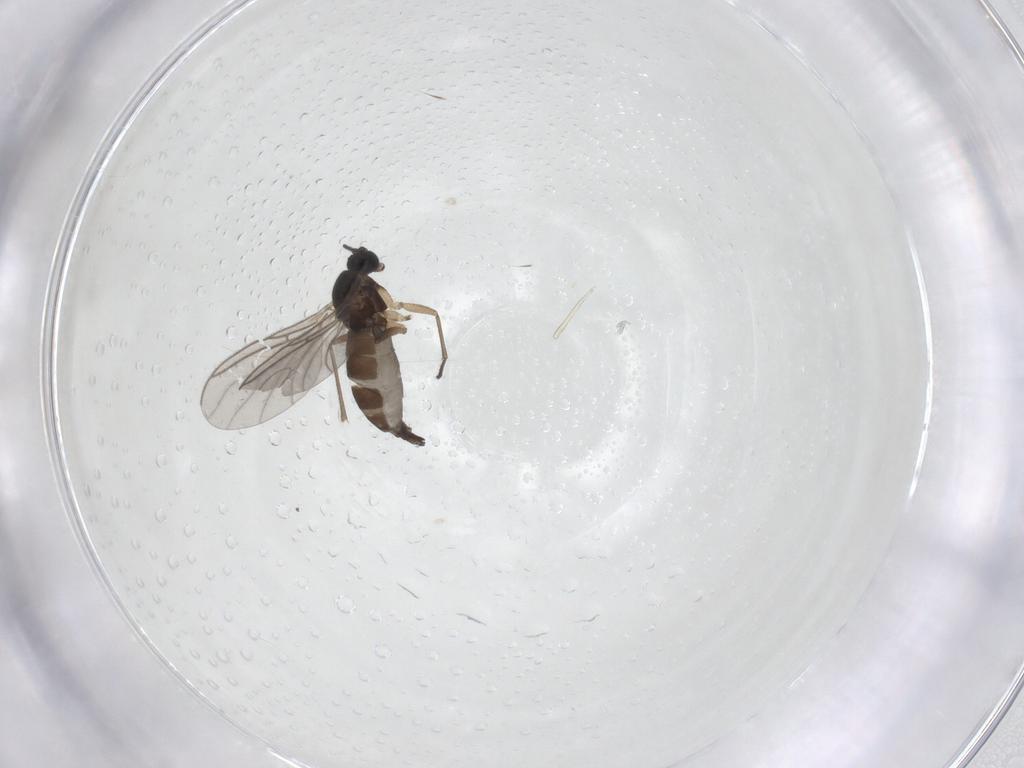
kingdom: Animalia
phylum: Arthropoda
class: Insecta
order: Diptera
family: Sciaridae
